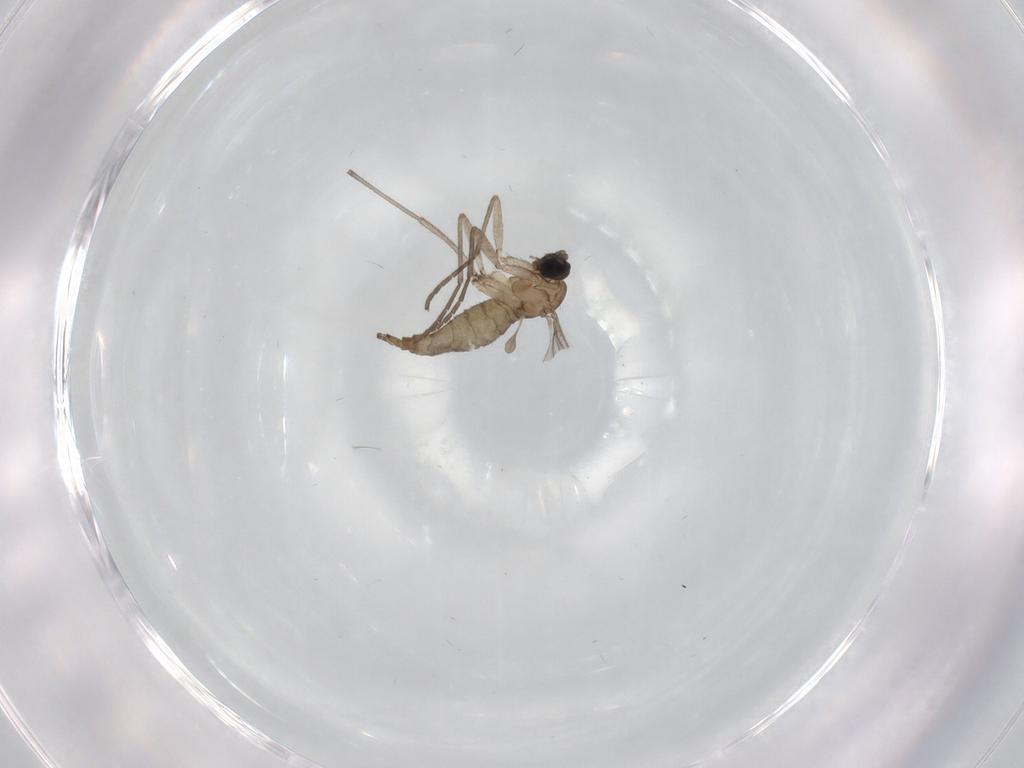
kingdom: Animalia
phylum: Arthropoda
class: Insecta
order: Diptera
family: Sciaridae
